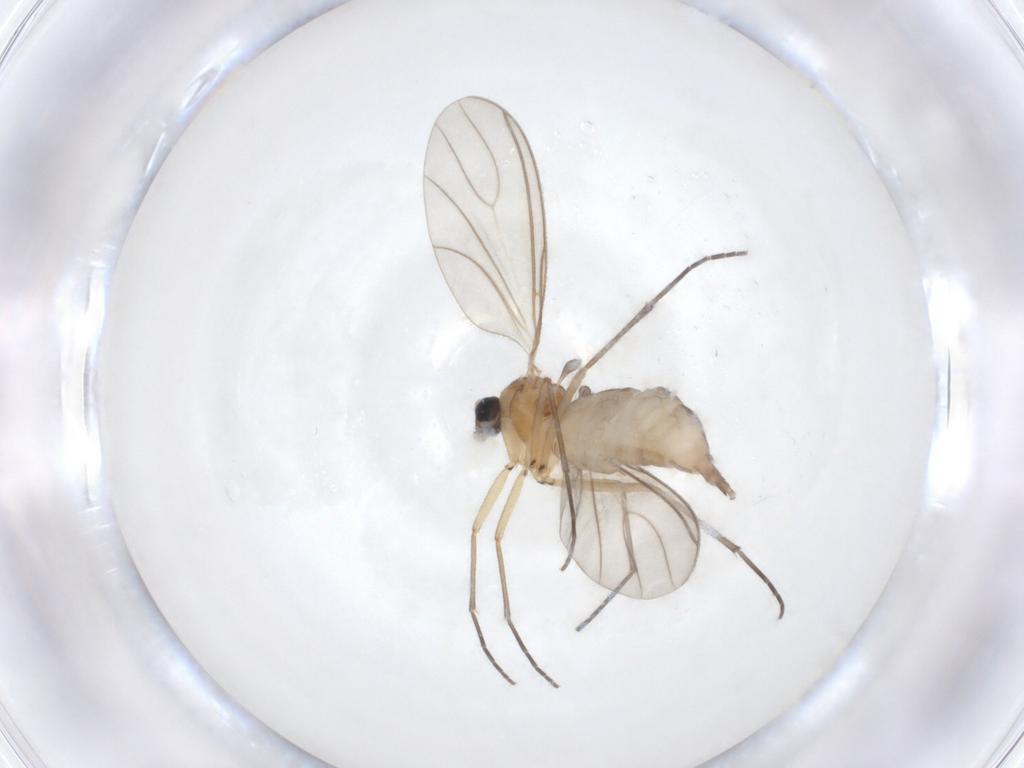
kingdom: Animalia
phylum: Arthropoda
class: Insecta
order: Diptera
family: Sciaridae
